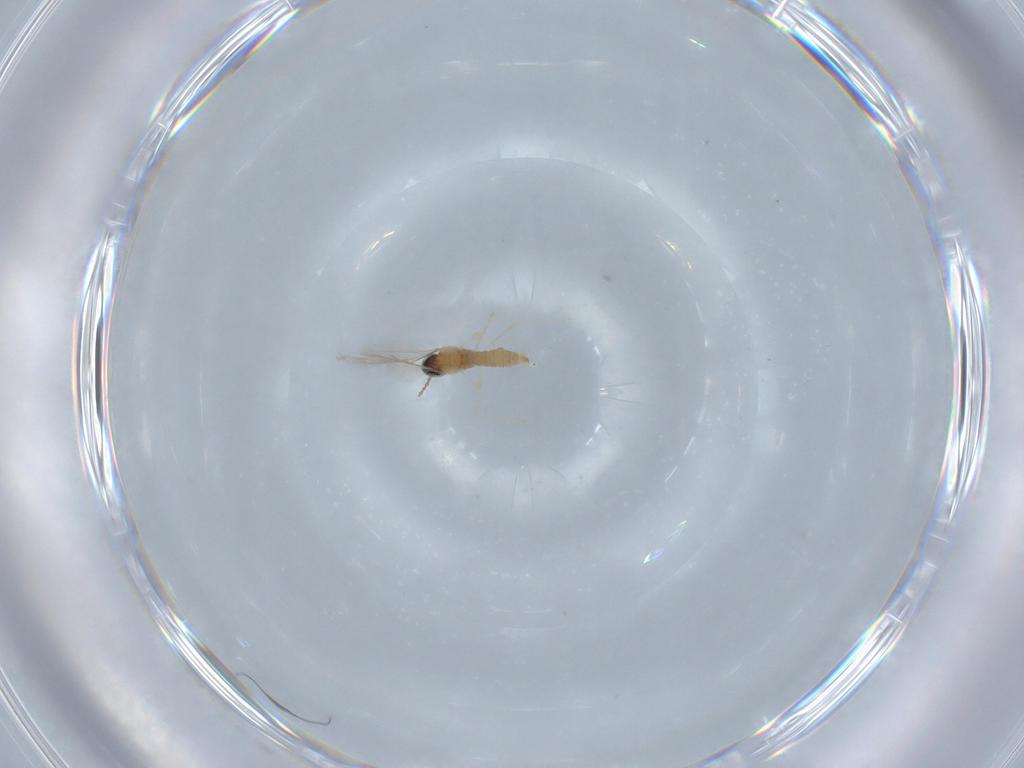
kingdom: Animalia
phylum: Arthropoda
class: Insecta
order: Diptera
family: Cecidomyiidae
